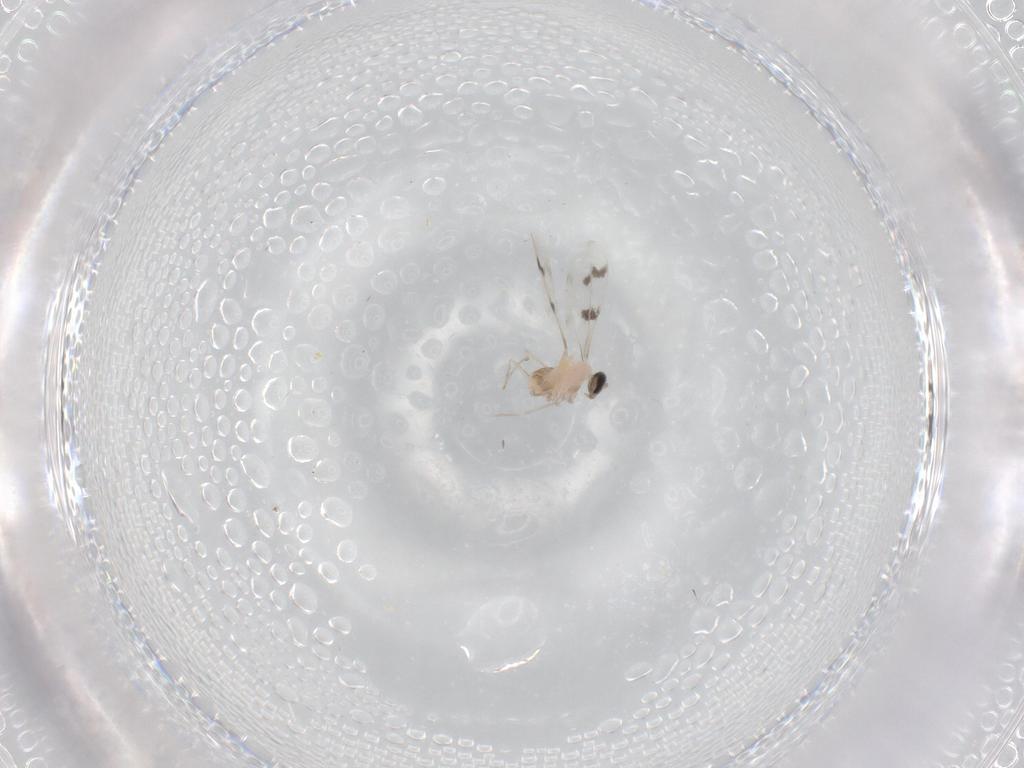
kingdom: Animalia
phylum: Arthropoda
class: Insecta
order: Diptera
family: Cecidomyiidae
